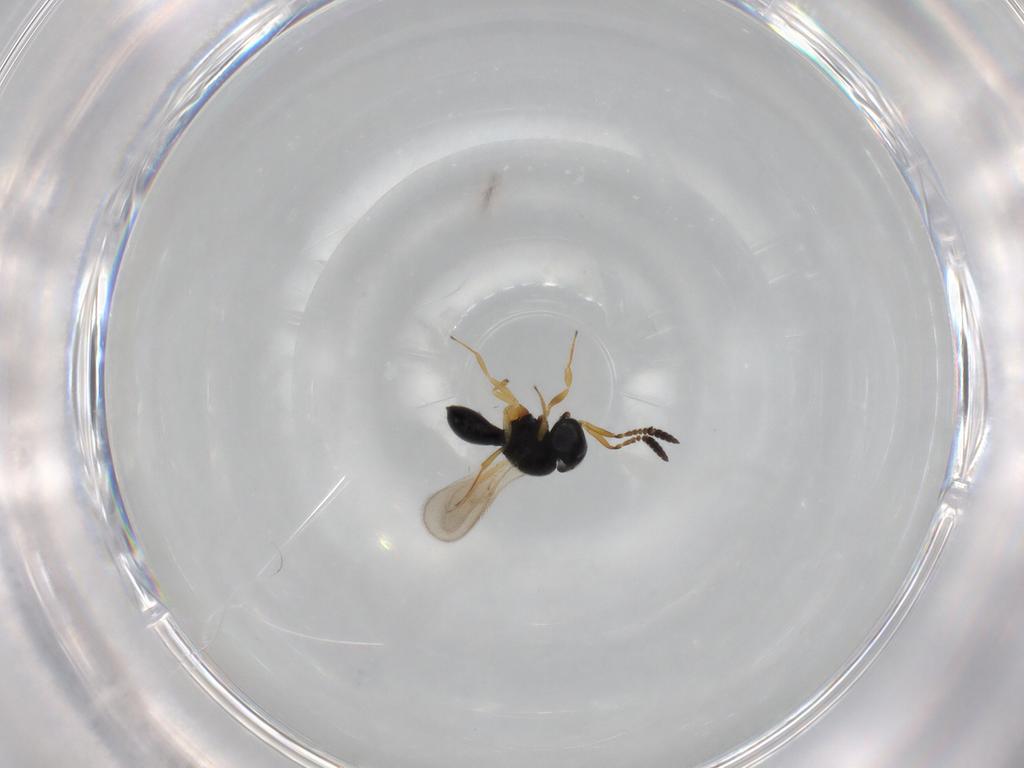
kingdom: Animalia
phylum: Arthropoda
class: Insecta
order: Hymenoptera
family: Scelionidae
